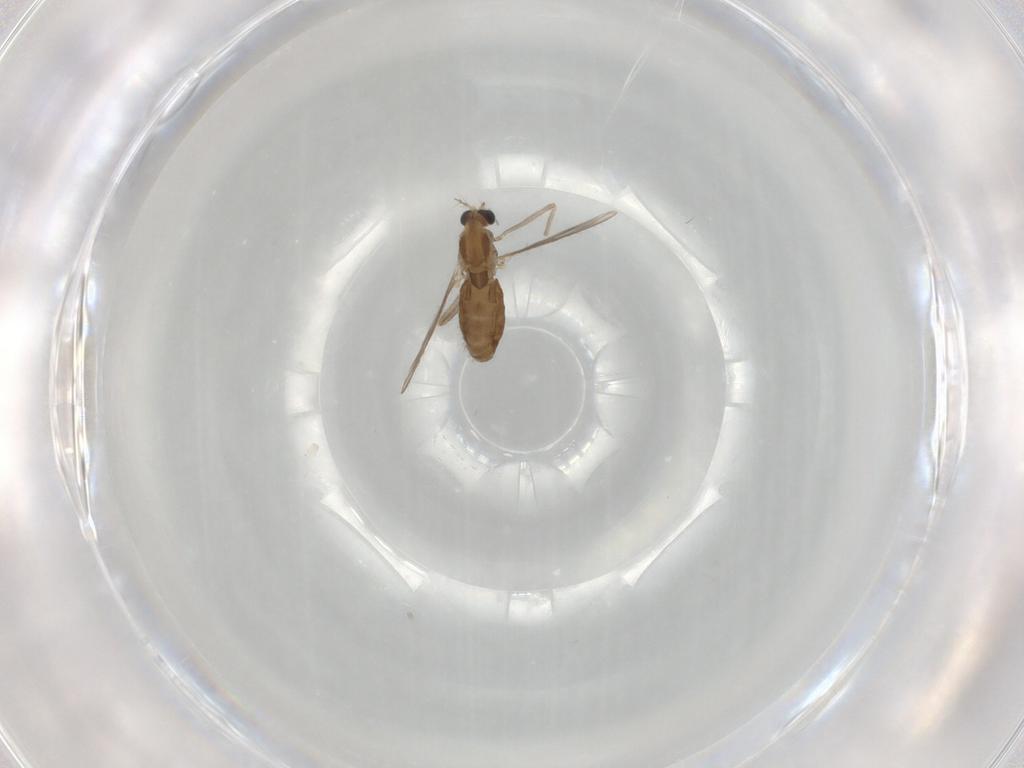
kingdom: Animalia
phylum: Arthropoda
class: Insecta
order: Diptera
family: Chironomidae
